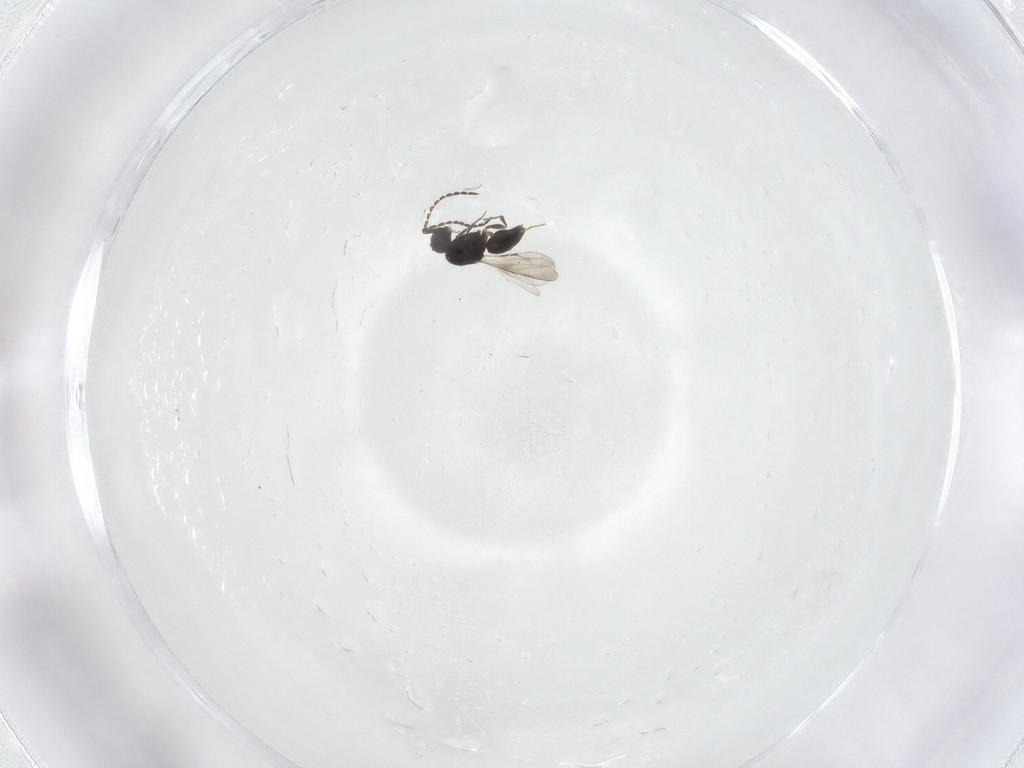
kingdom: Animalia
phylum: Arthropoda
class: Insecta
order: Hymenoptera
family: Ceraphronidae
